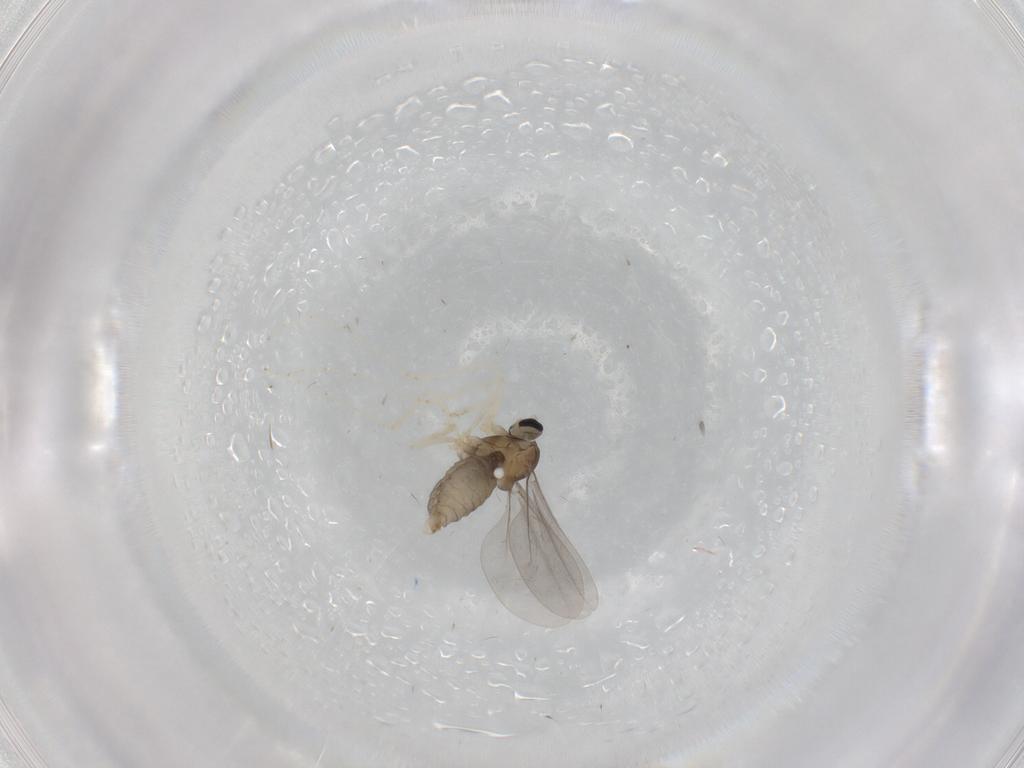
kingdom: Animalia
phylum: Arthropoda
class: Insecta
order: Diptera
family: Cecidomyiidae
